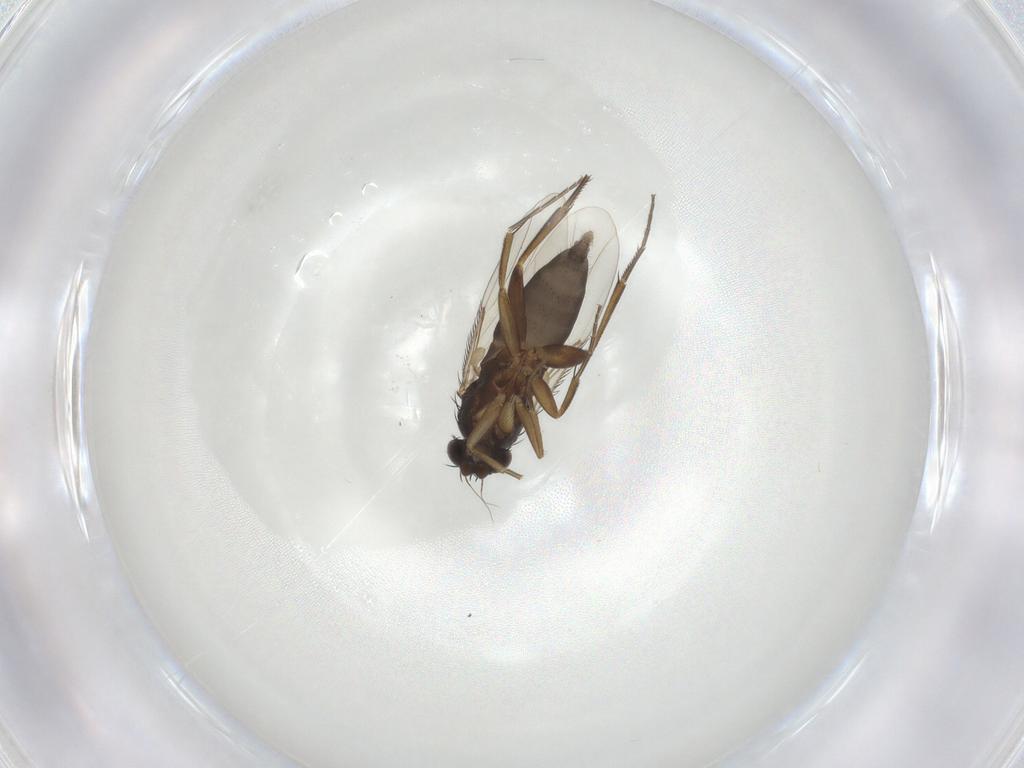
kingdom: Animalia
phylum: Arthropoda
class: Insecta
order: Diptera
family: Phoridae
